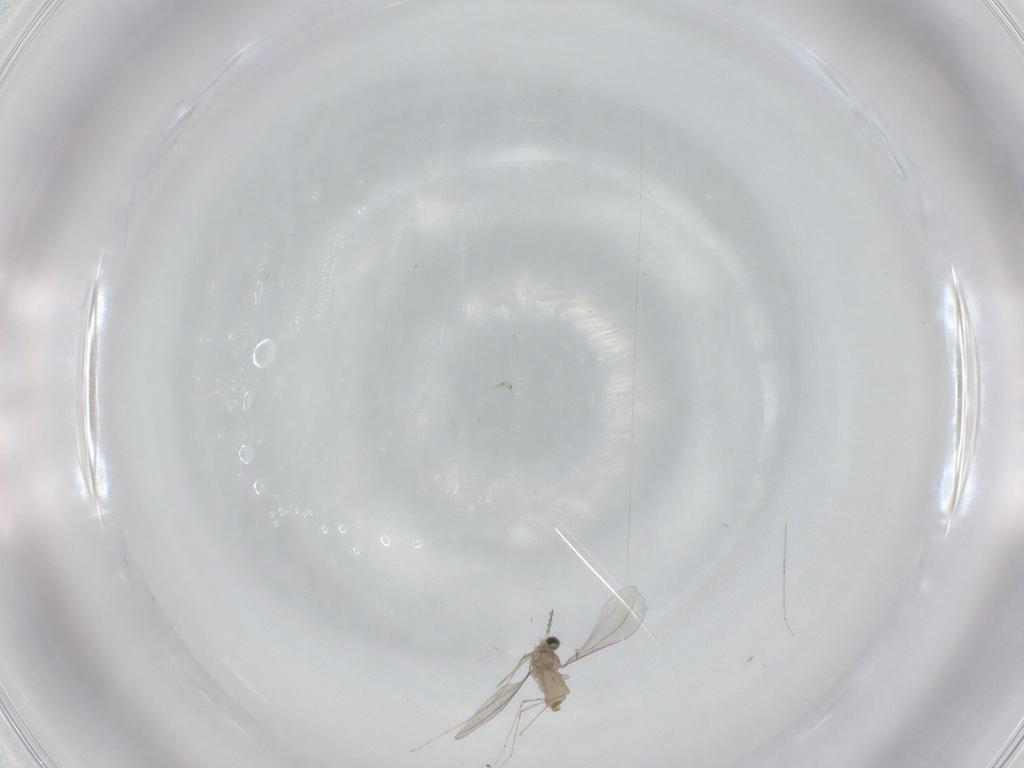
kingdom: Animalia
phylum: Arthropoda
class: Insecta
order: Diptera
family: Cecidomyiidae
